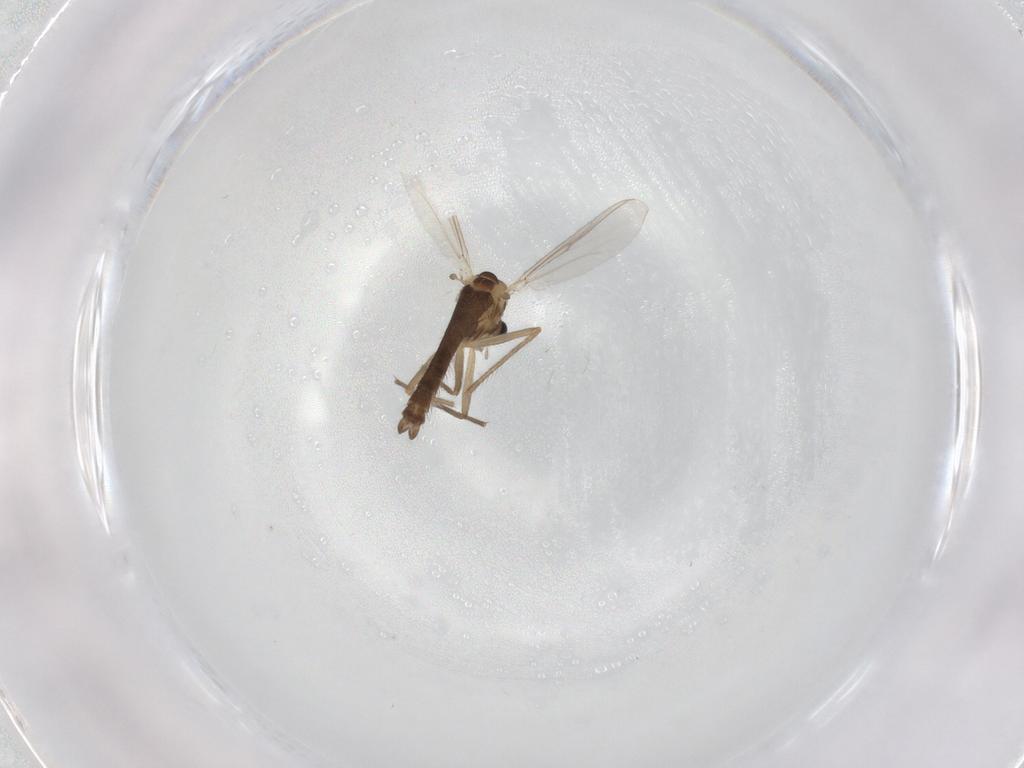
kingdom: Animalia
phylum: Arthropoda
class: Insecta
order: Diptera
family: Chironomidae
